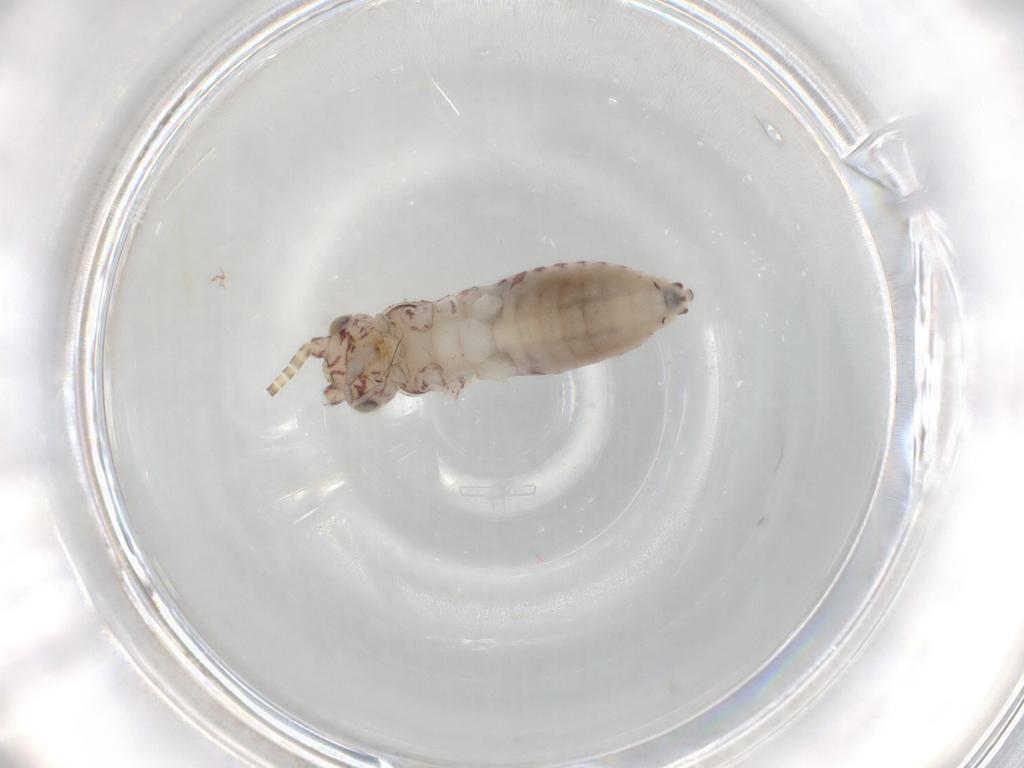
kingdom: Animalia
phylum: Arthropoda
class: Insecta
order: Orthoptera
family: Trigonidiidae
